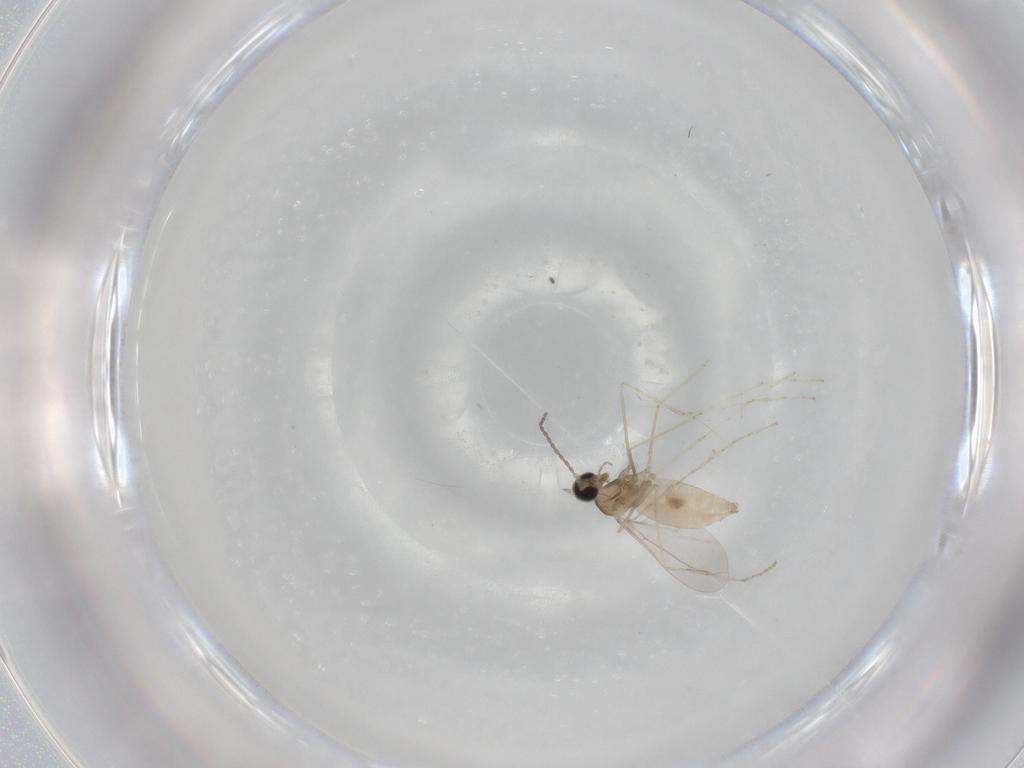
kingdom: Animalia
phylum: Arthropoda
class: Insecta
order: Diptera
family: Cecidomyiidae
